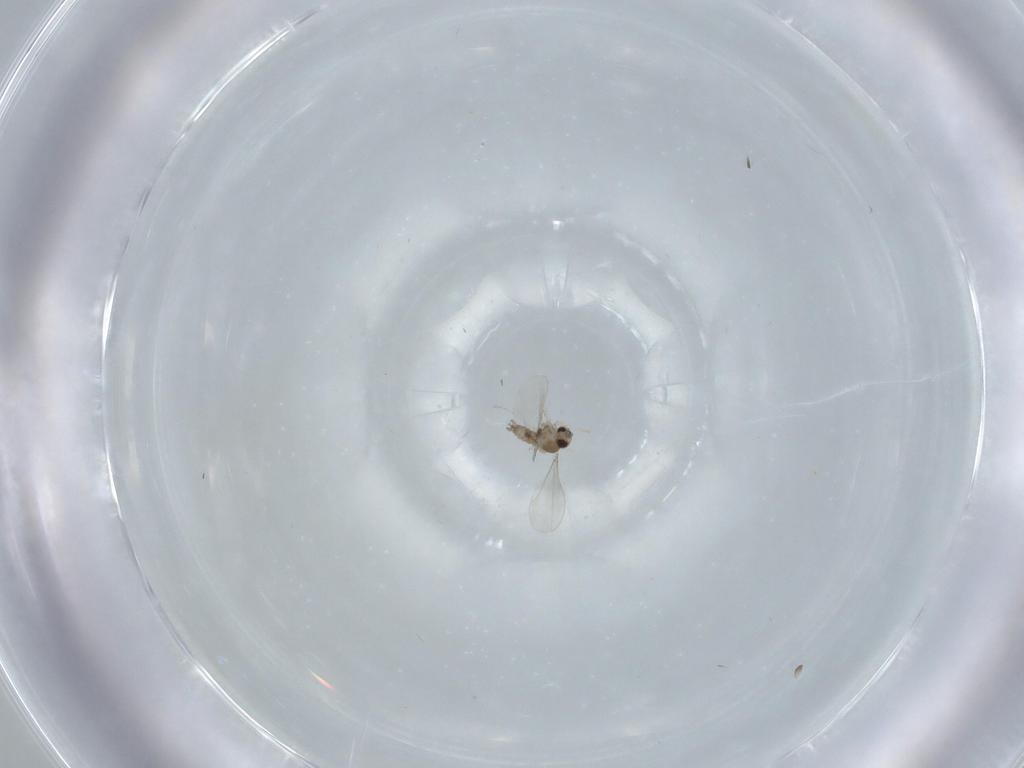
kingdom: Animalia
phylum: Arthropoda
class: Insecta
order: Diptera
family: Cecidomyiidae
